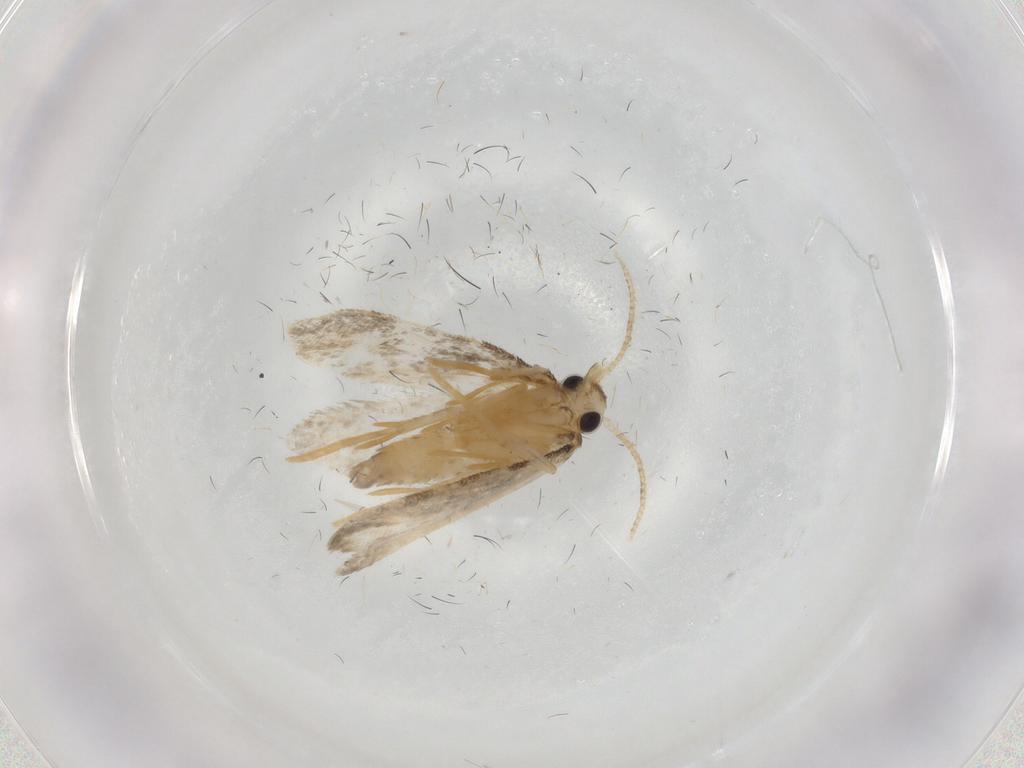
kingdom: Animalia
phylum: Arthropoda
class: Insecta
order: Lepidoptera
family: Psychidae
